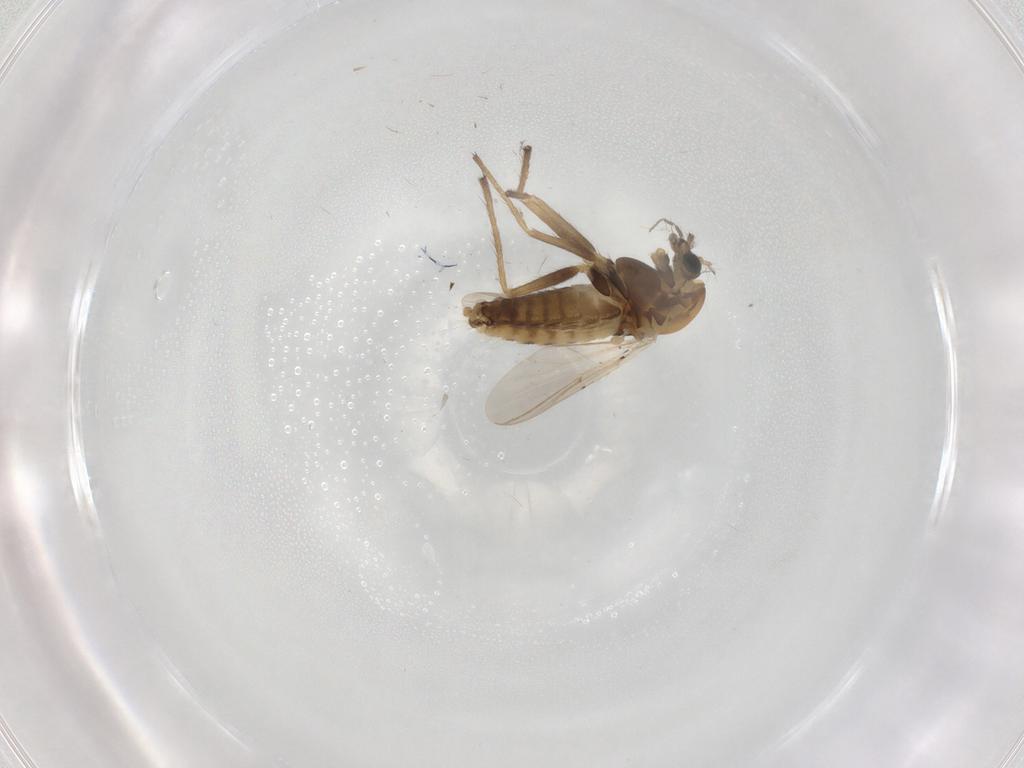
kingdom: Animalia
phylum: Arthropoda
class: Insecta
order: Diptera
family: Chironomidae
